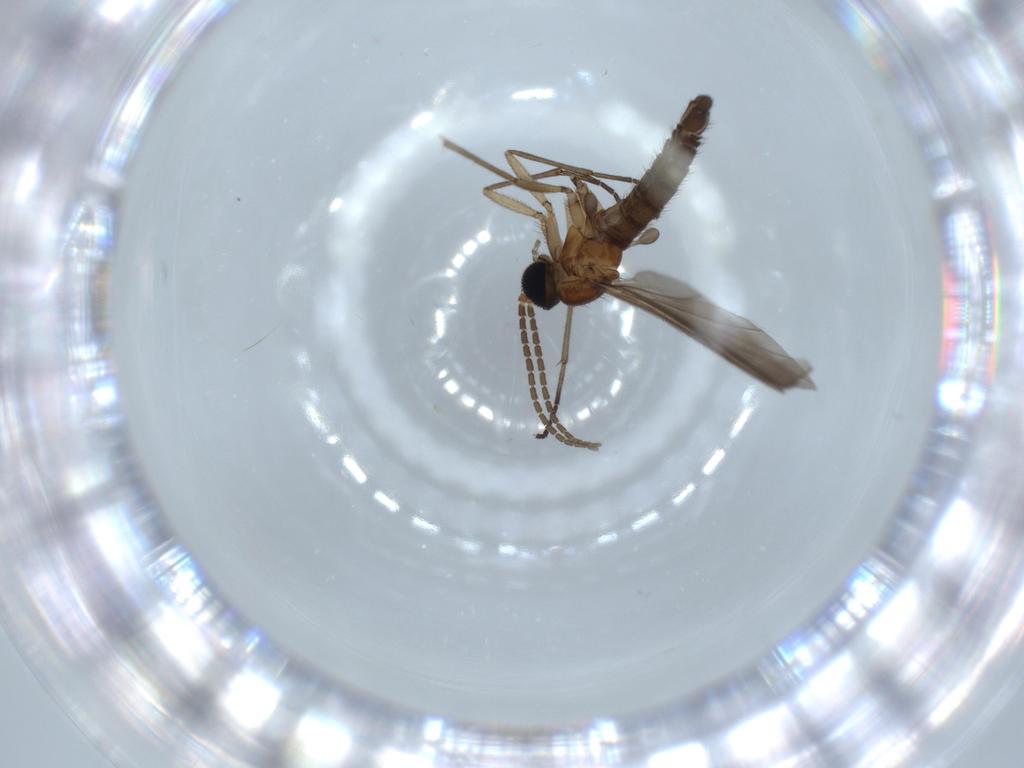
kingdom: Animalia
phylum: Arthropoda
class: Insecta
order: Diptera
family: Sciaridae
